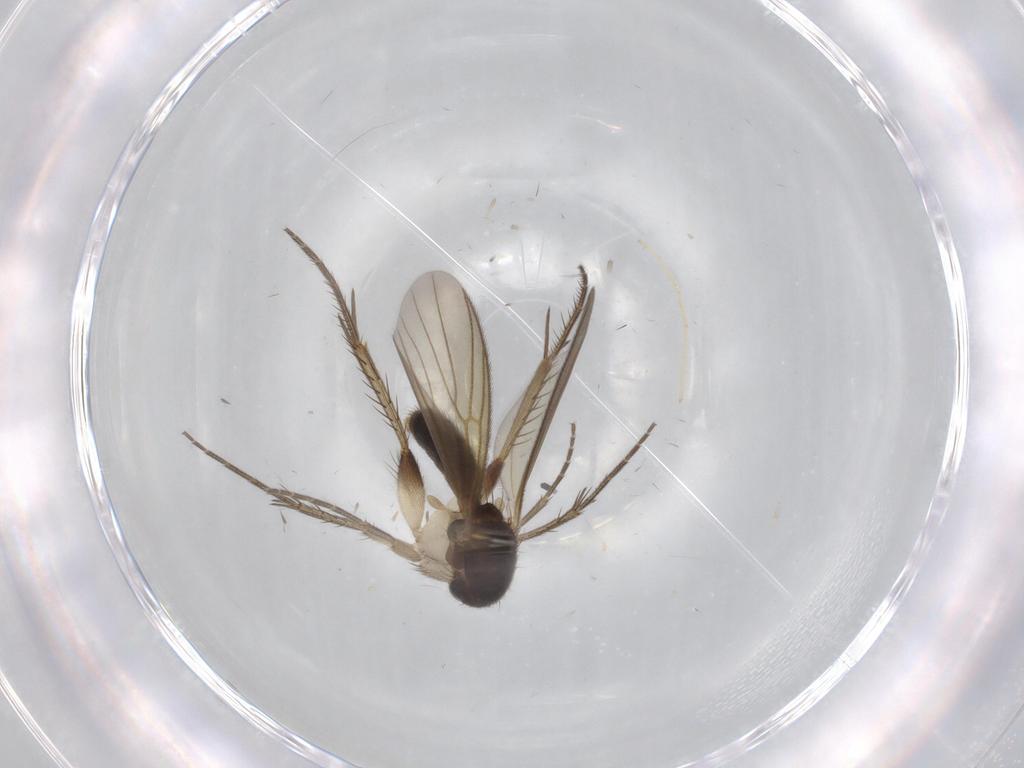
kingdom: Animalia
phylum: Arthropoda
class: Insecta
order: Diptera
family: Chironomidae
